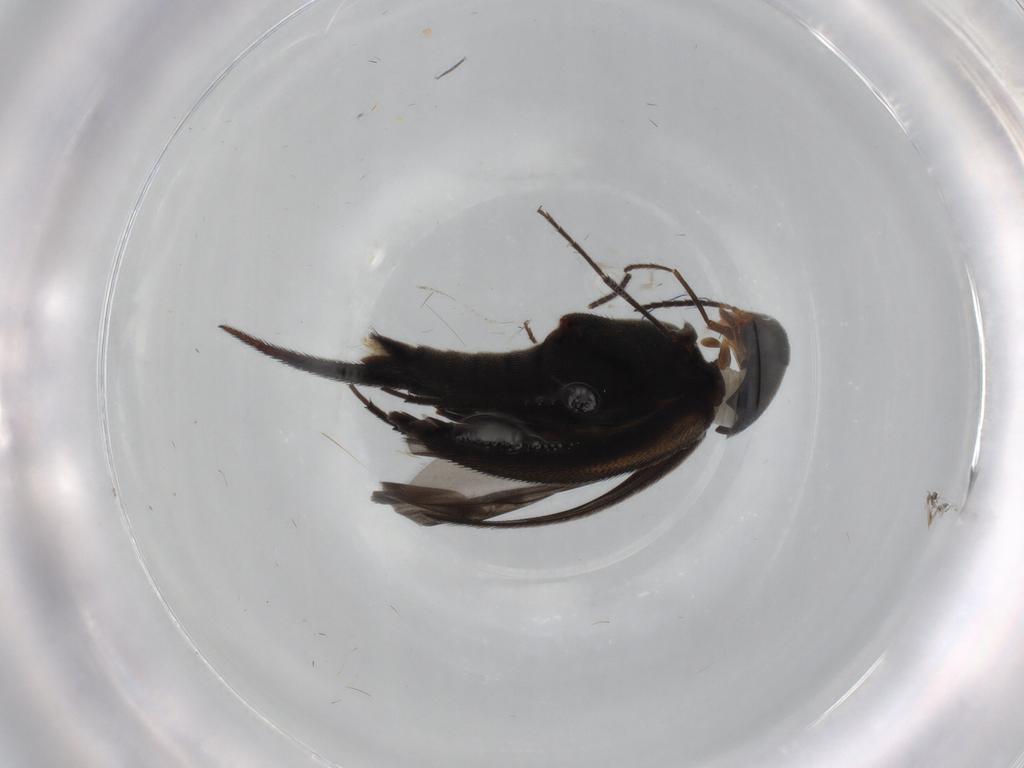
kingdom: Animalia
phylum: Arthropoda
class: Insecta
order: Coleoptera
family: Mordellidae
